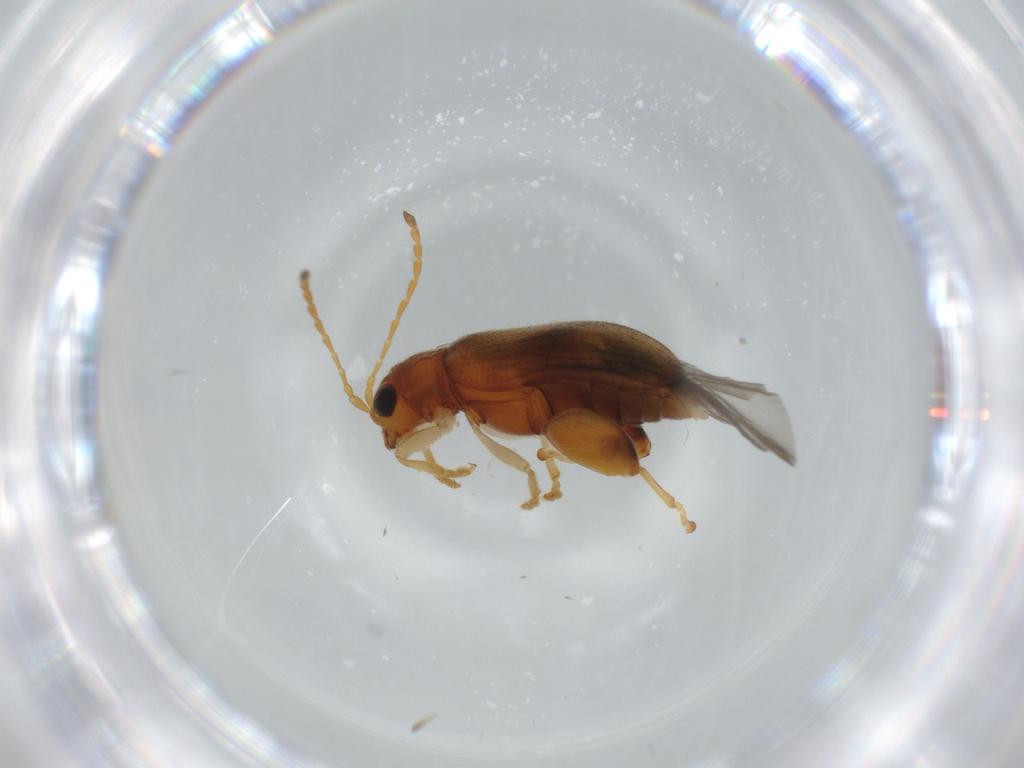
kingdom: Animalia
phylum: Arthropoda
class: Insecta
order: Coleoptera
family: Chrysomelidae
